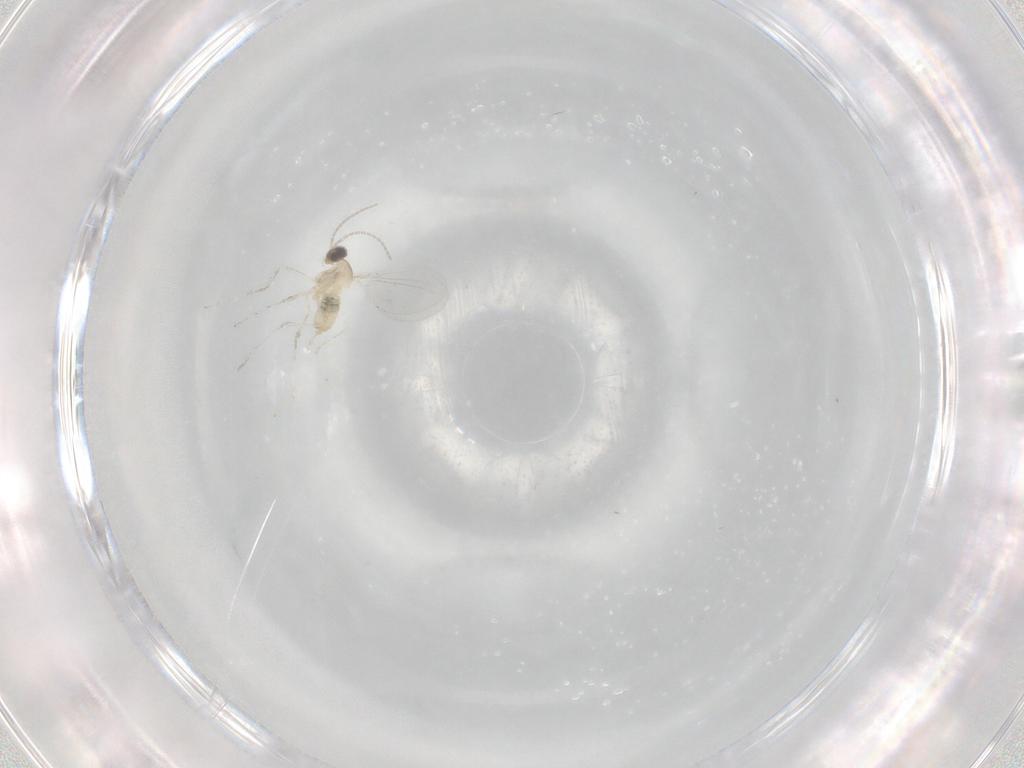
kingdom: Animalia
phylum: Arthropoda
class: Insecta
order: Diptera
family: Cecidomyiidae
